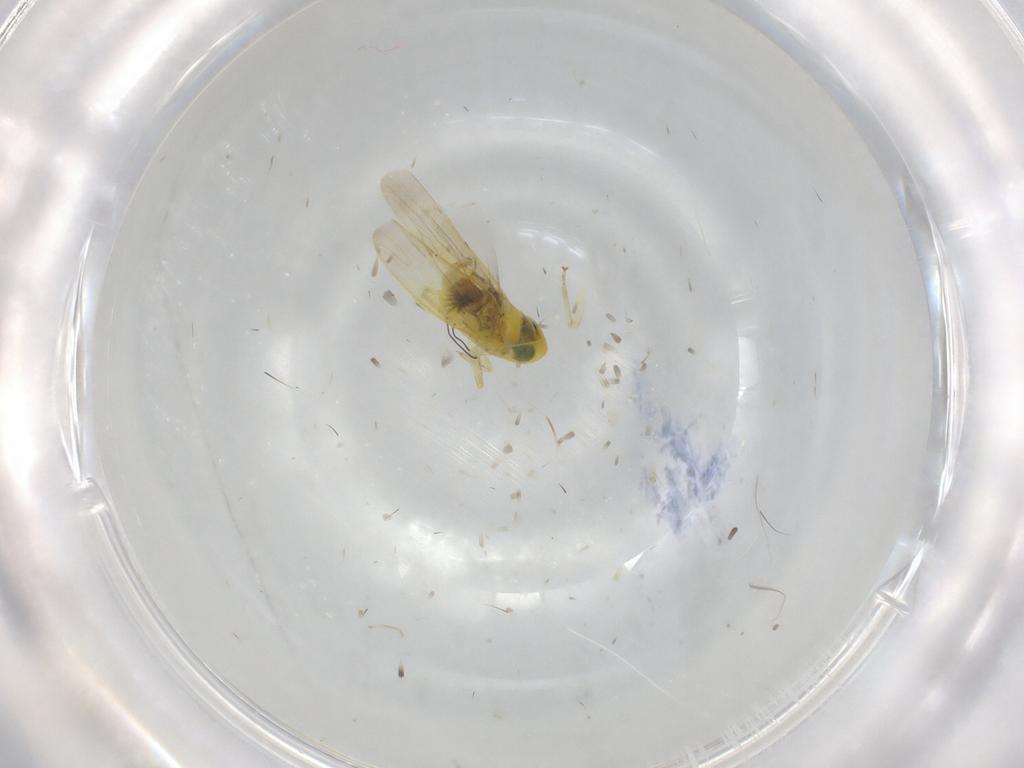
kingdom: Animalia
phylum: Arthropoda
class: Insecta
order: Hemiptera
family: Cicadellidae
